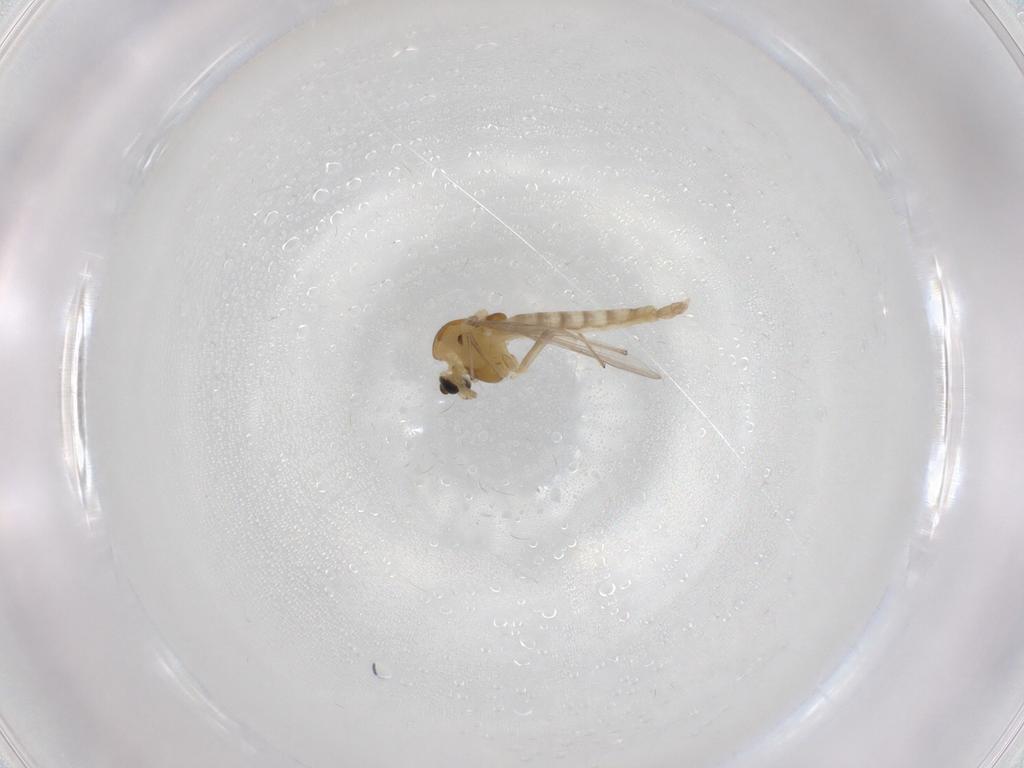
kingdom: Animalia
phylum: Arthropoda
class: Insecta
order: Diptera
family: Chironomidae
